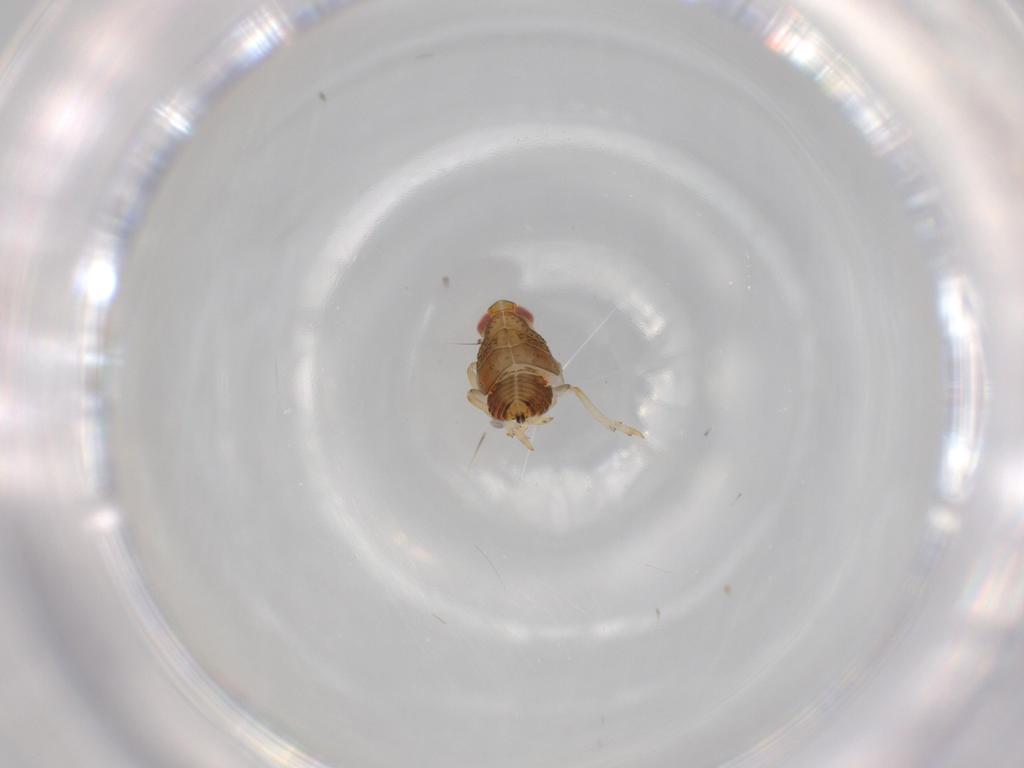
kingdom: Animalia
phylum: Arthropoda
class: Insecta
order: Hemiptera
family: Issidae
